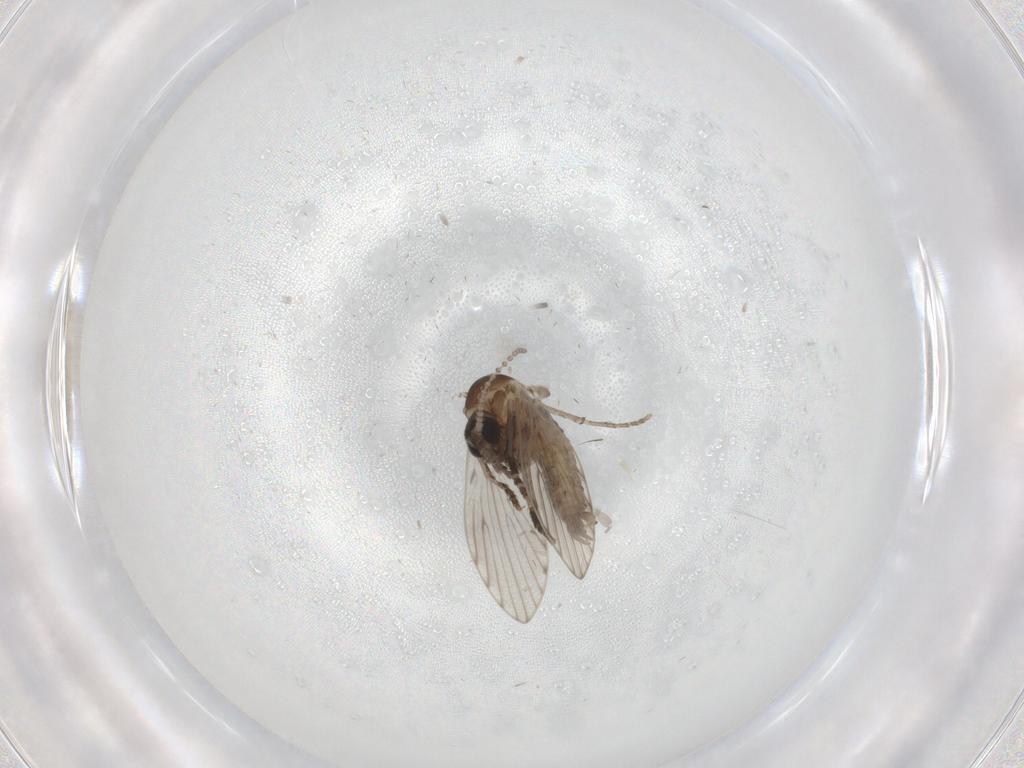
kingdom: Animalia
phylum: Arthropoda
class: Insecta
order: Diptera
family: Psychodidae
